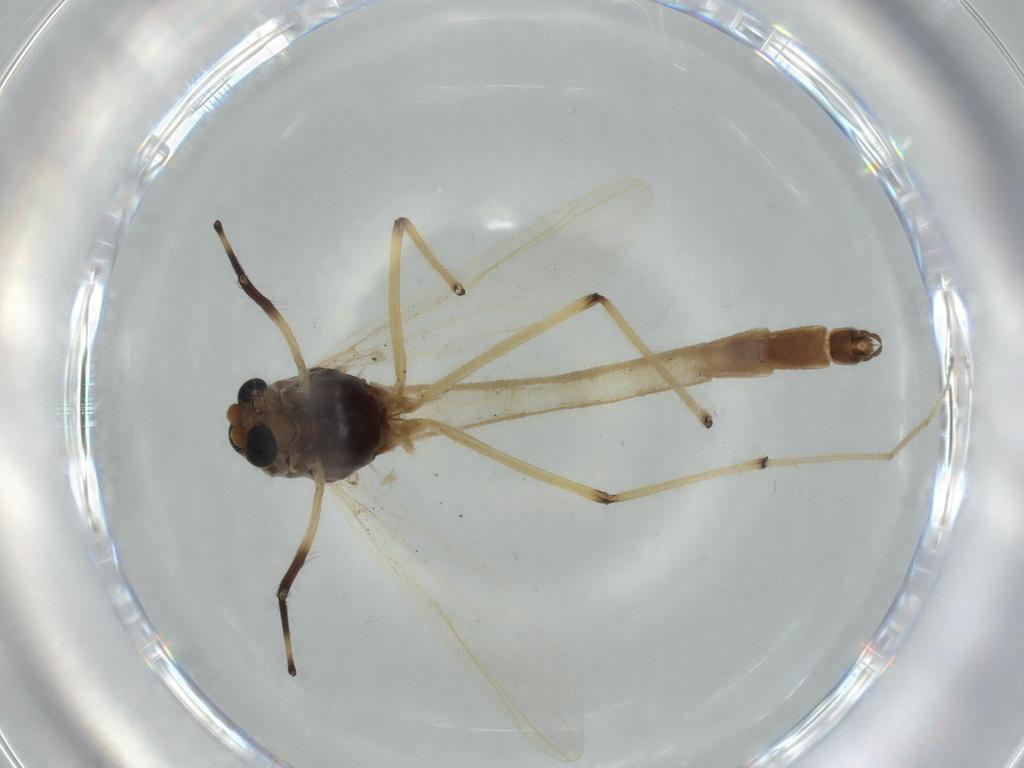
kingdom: Animalia
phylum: Arthropoda
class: Insecta
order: Diptera
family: Chironomidae
